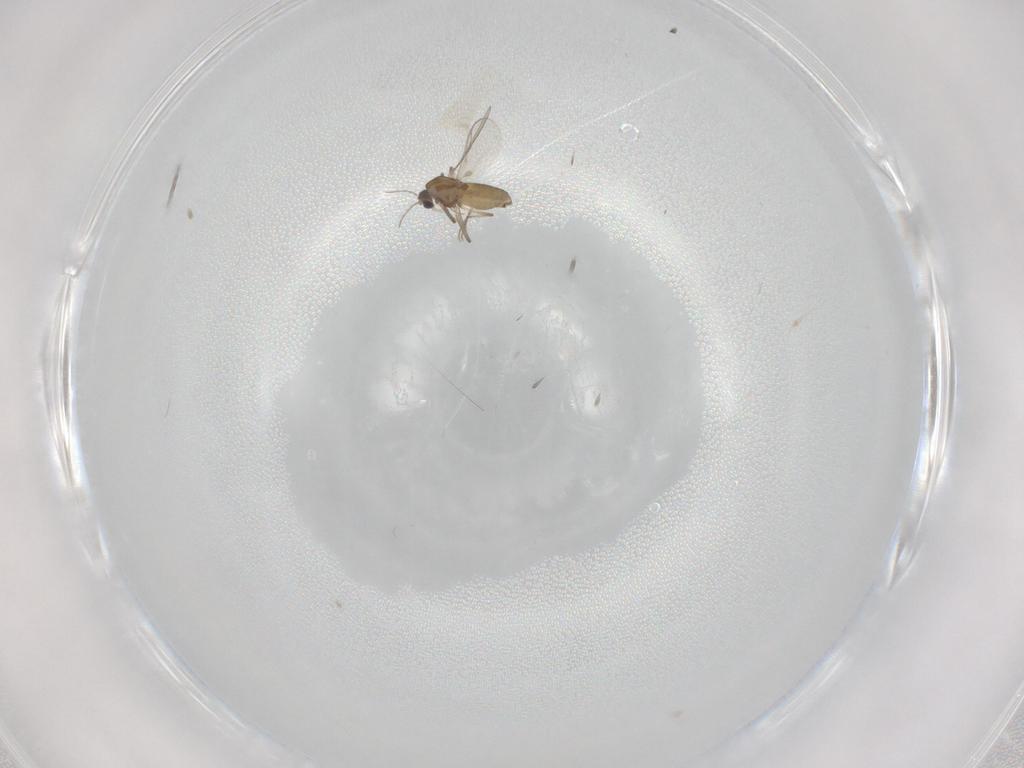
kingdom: Animalia
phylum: Arthropoda
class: Insecta
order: Diptera
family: Chironomidae
